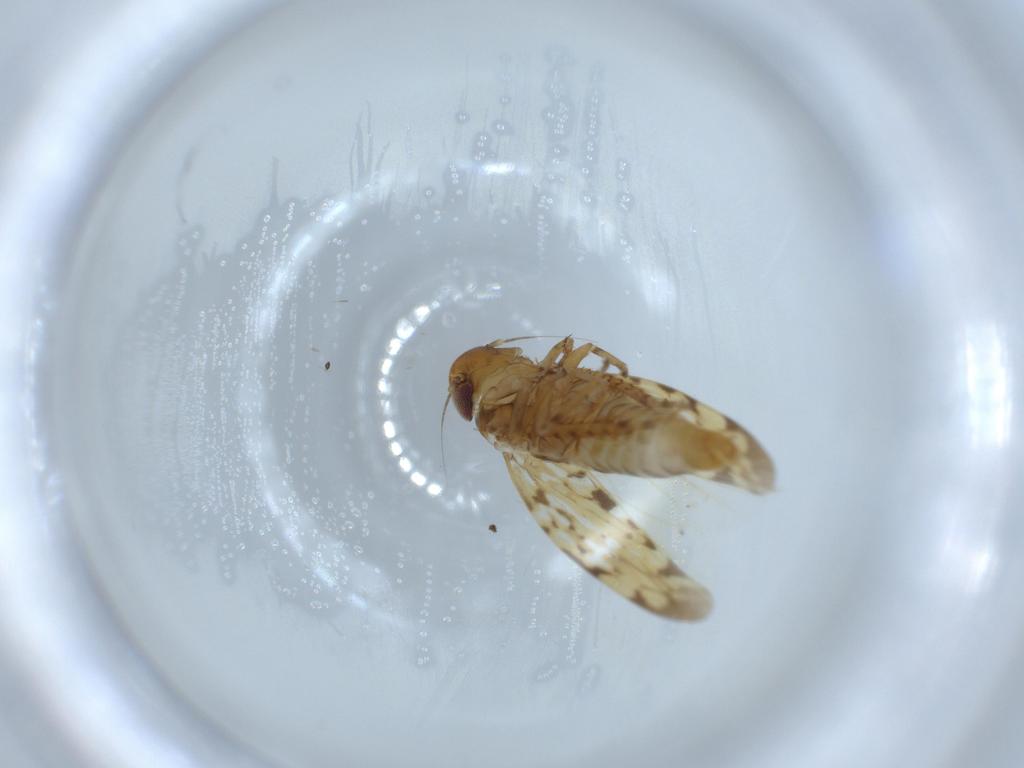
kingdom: Animalia
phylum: Arthropoda
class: Insecta
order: Hemiptera
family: Cicadellidae
